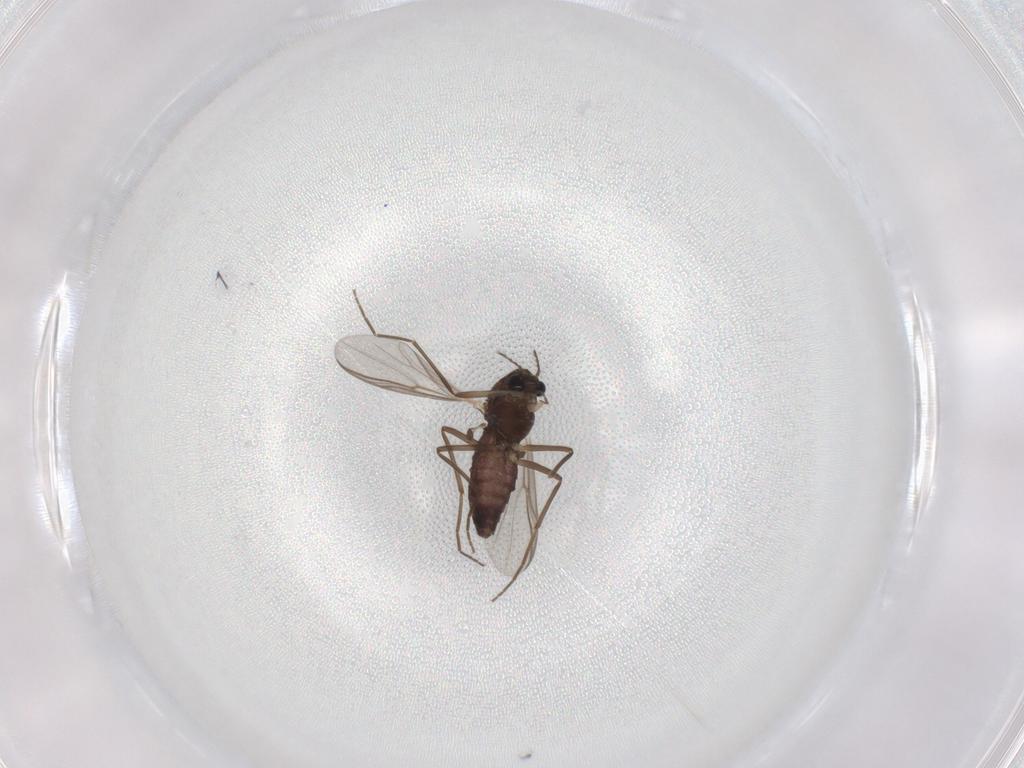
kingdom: Animalia
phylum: Arthropoda
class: Insecta
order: Diptera
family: Chironomidae
